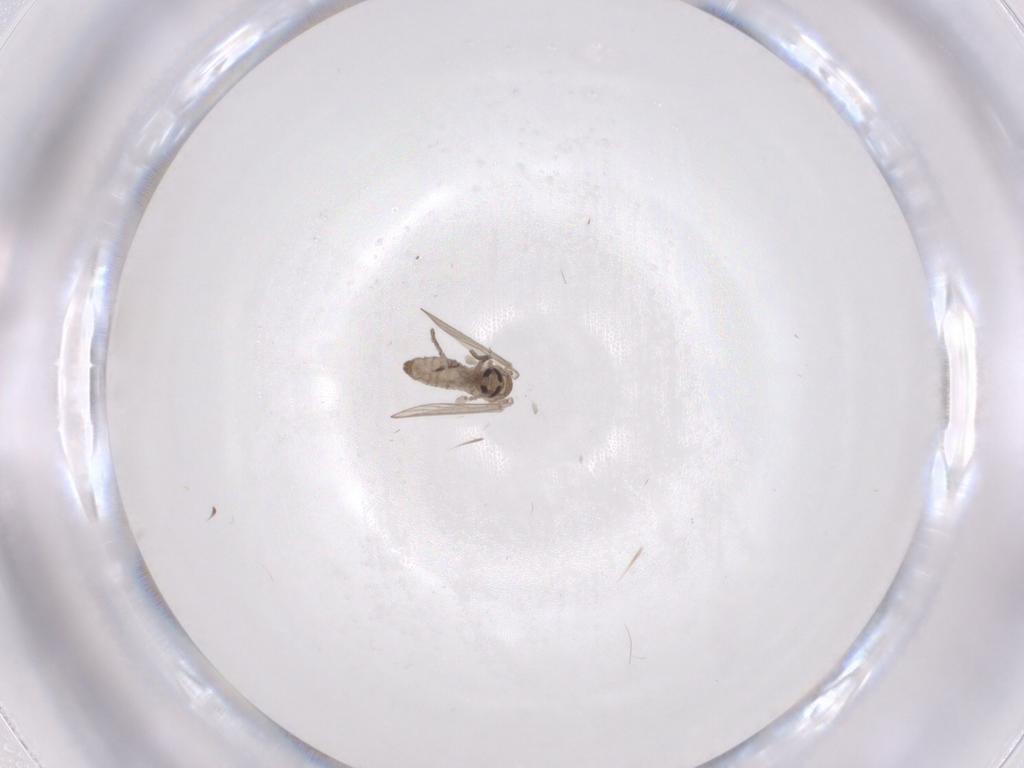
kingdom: Animalia
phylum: Arthropoda
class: Insecta
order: Diptera
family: Psychodidae
